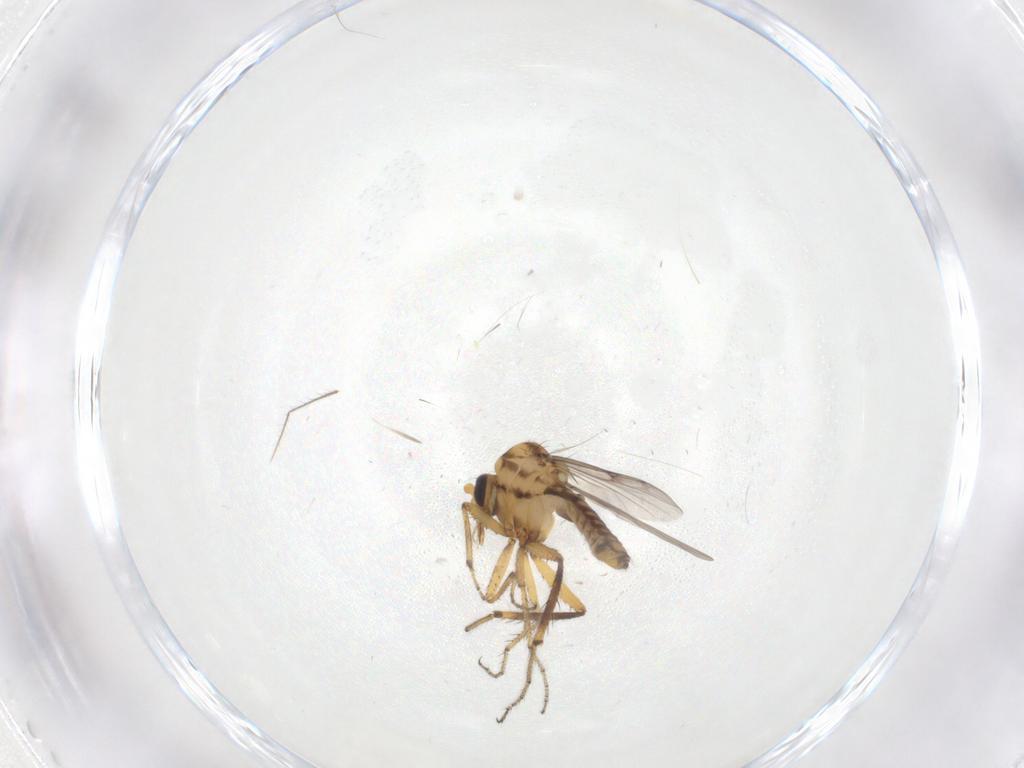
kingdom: Animalia
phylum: Arthropoda
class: Insecta
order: Diptera
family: Ceratopogonidae
